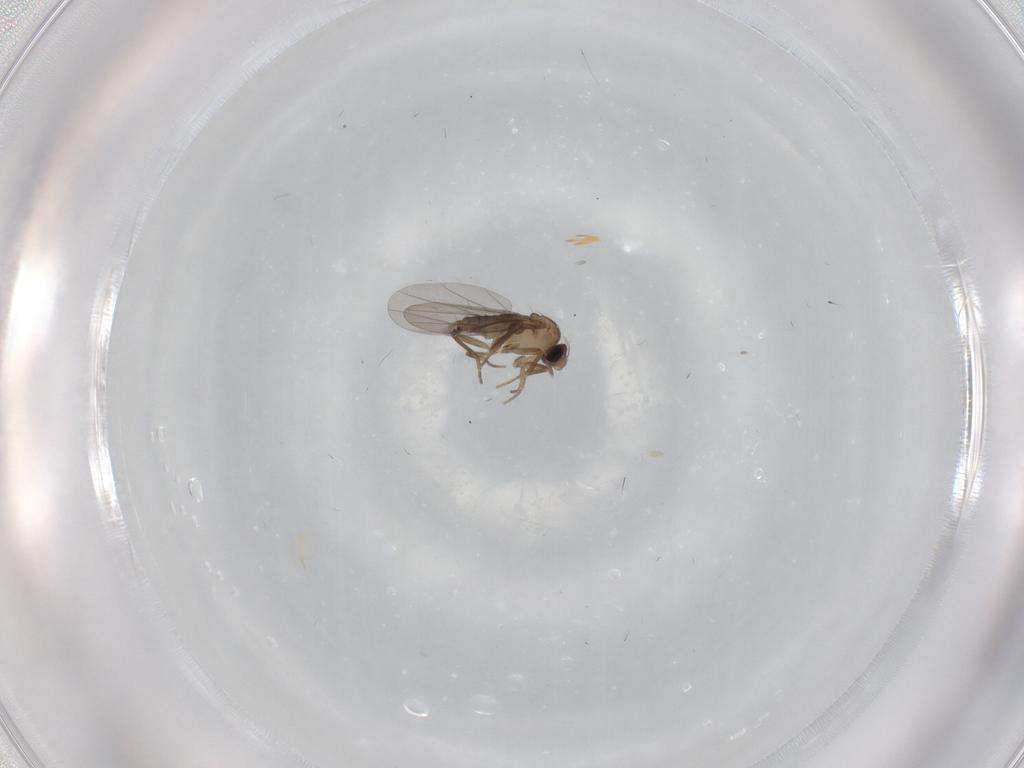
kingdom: Animalia
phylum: Arthropoda
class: Insecta
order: Diptera
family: Cecidomyiidae
